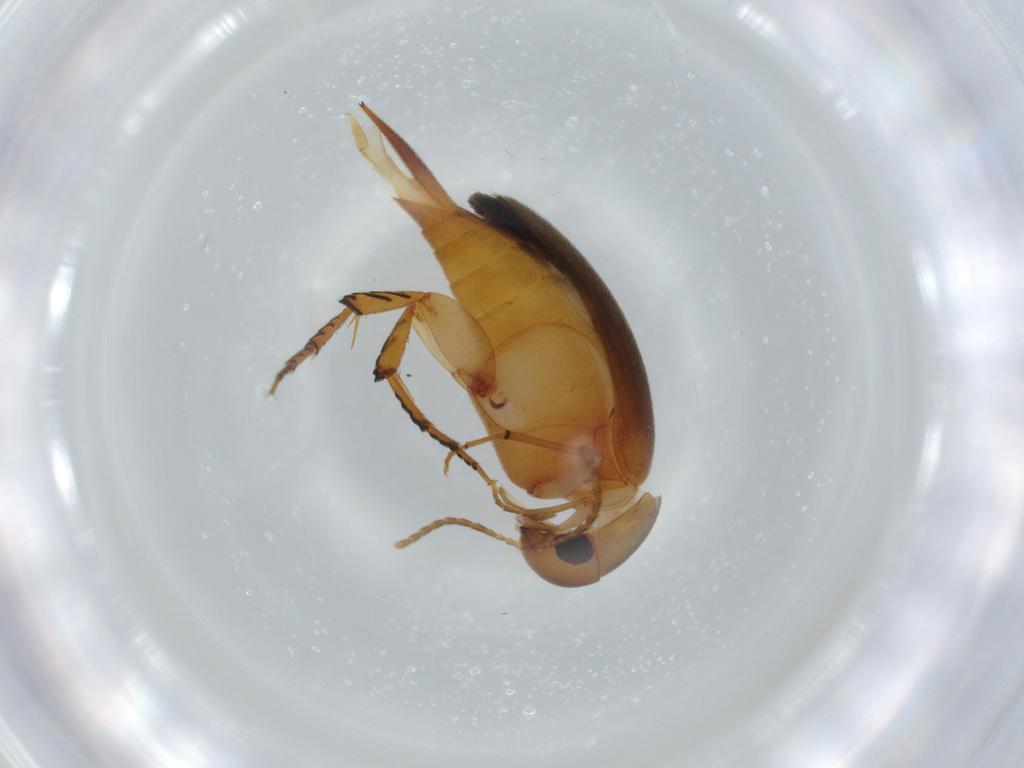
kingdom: Animalia
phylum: Arthropoda
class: Insecta
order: Coleoptera
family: Mordellidae
